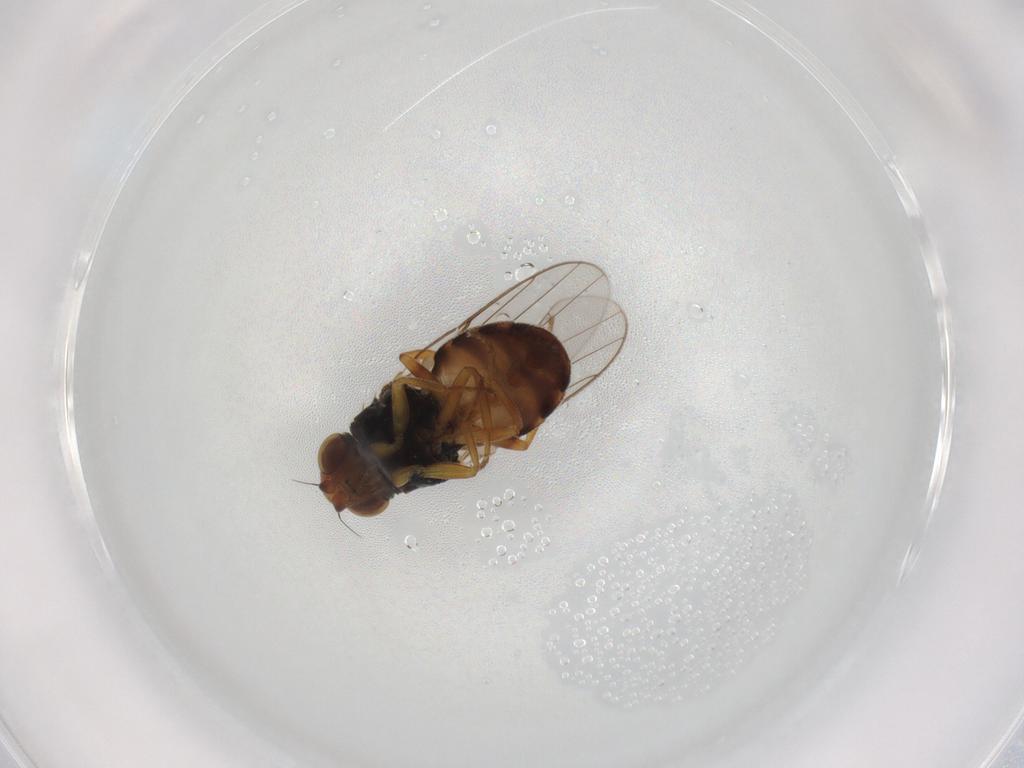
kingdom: Animalia
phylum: Arthropoda
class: Insecta
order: Diptera
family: Chloropidae
